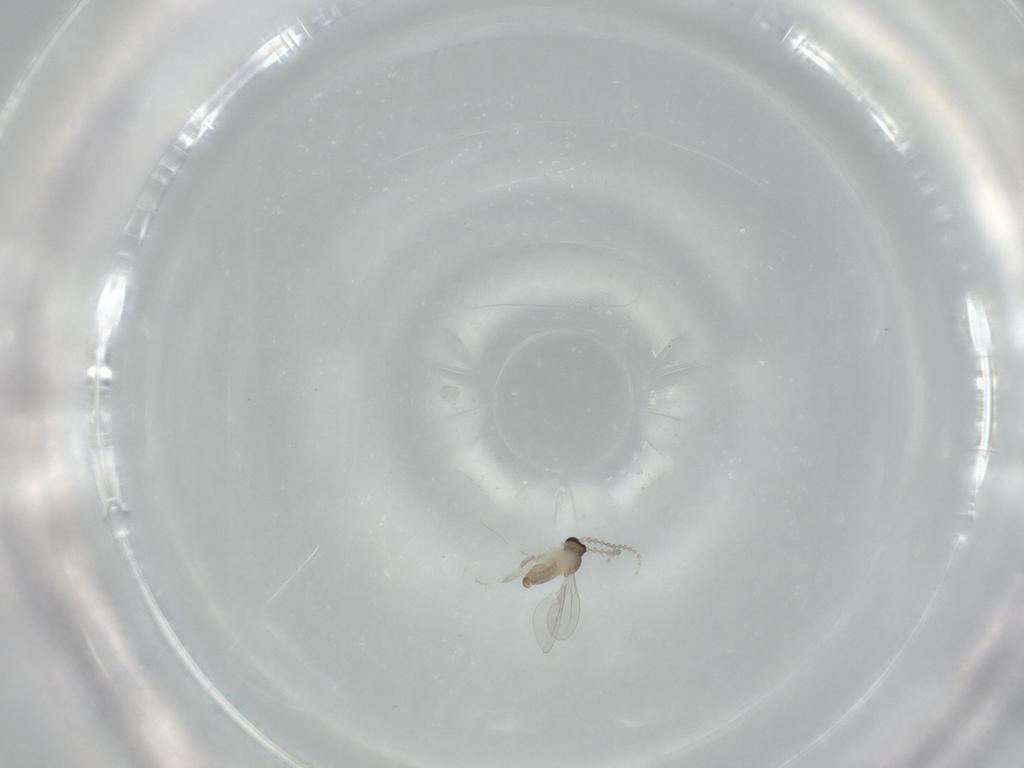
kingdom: Animalia
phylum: Arthropoda
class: Insecta
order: Diptera
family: Cecidomyiidae
